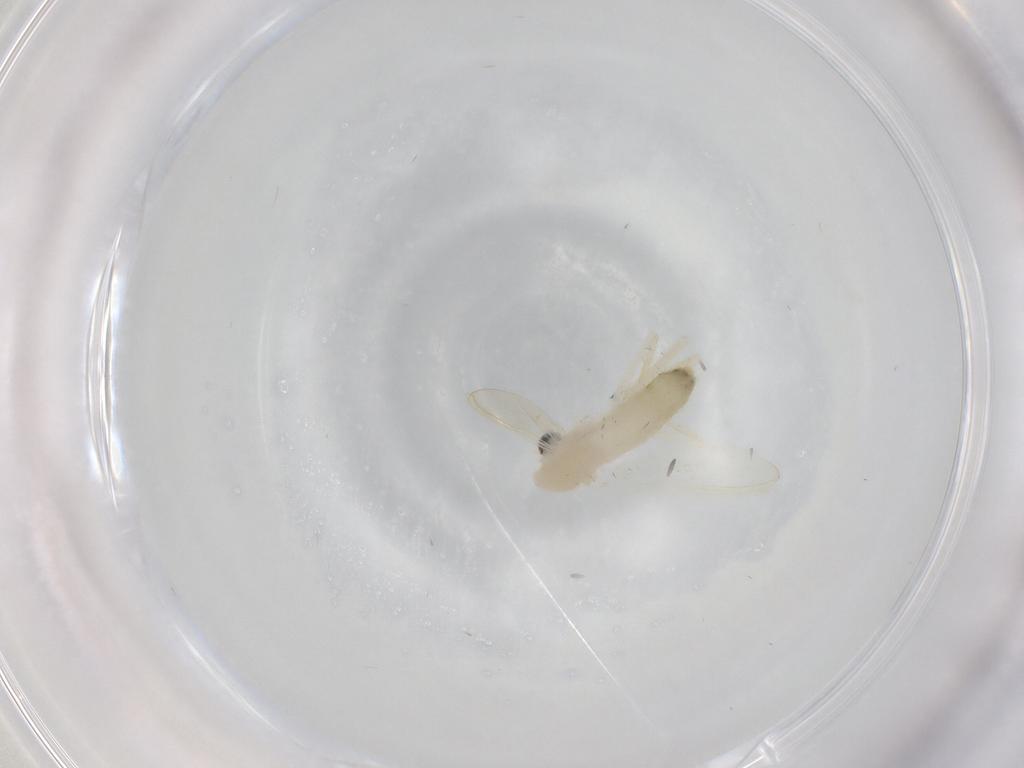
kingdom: Animalia
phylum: Arthropoda
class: Insecta
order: Diptera
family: Chironomidae
